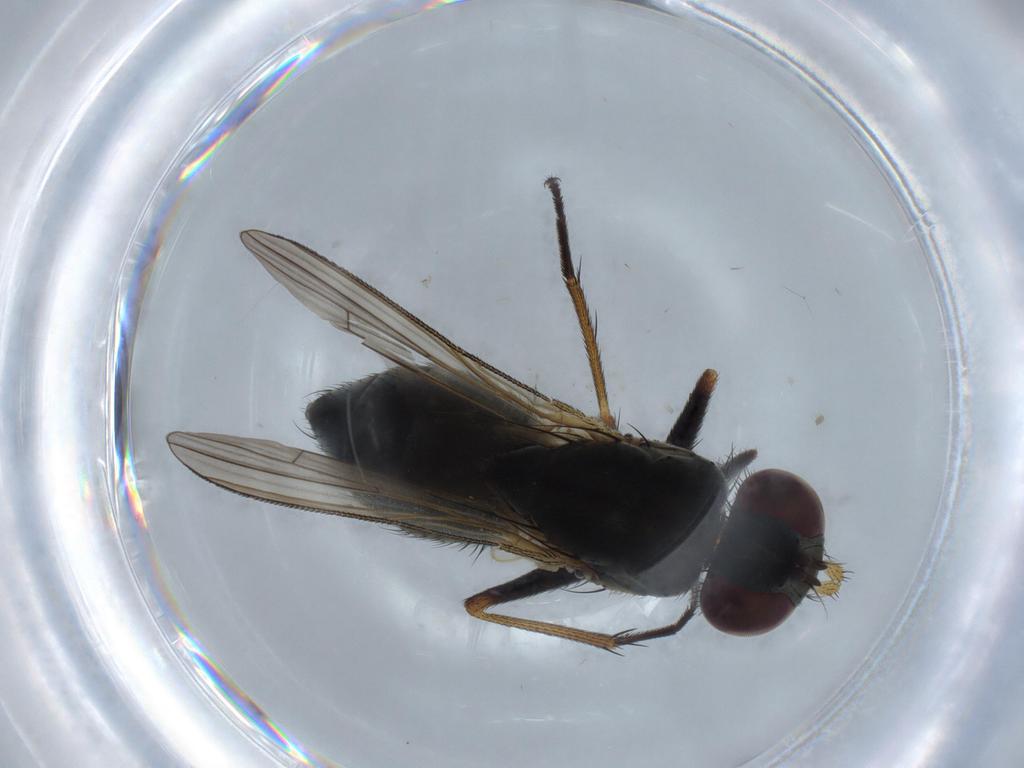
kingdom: Animalia
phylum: Arthropoda
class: Insecta
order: Diptera
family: Muscidae
